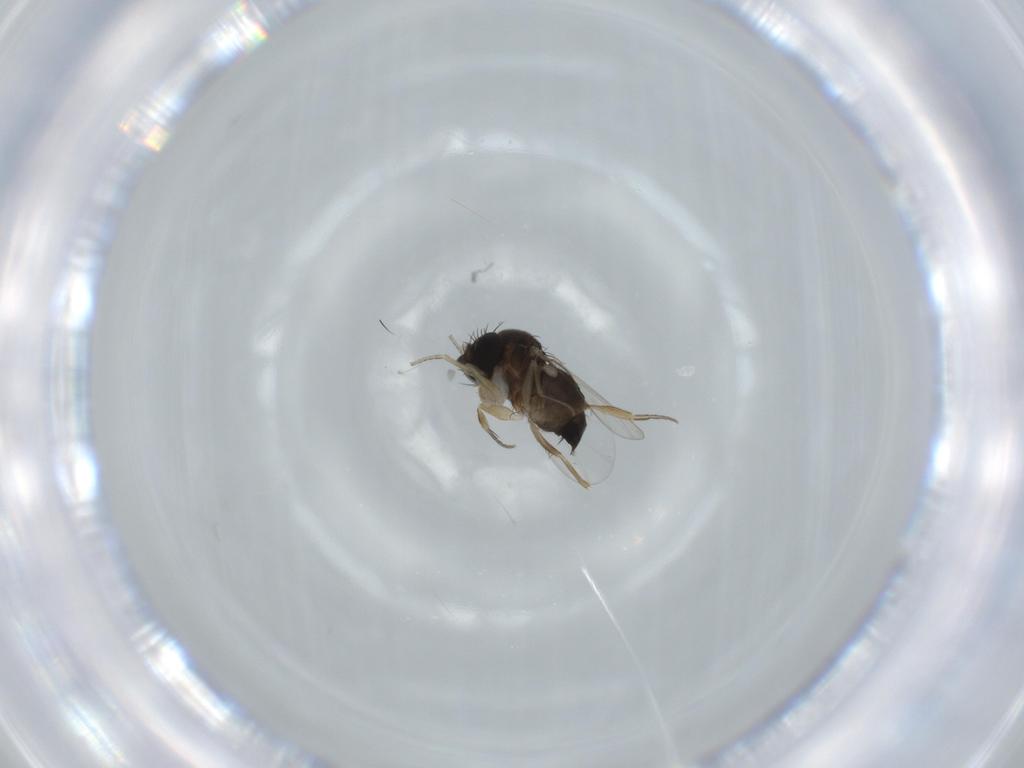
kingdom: Animalia
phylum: Arthropoda
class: Insecta
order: Diptera
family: Phoridae
